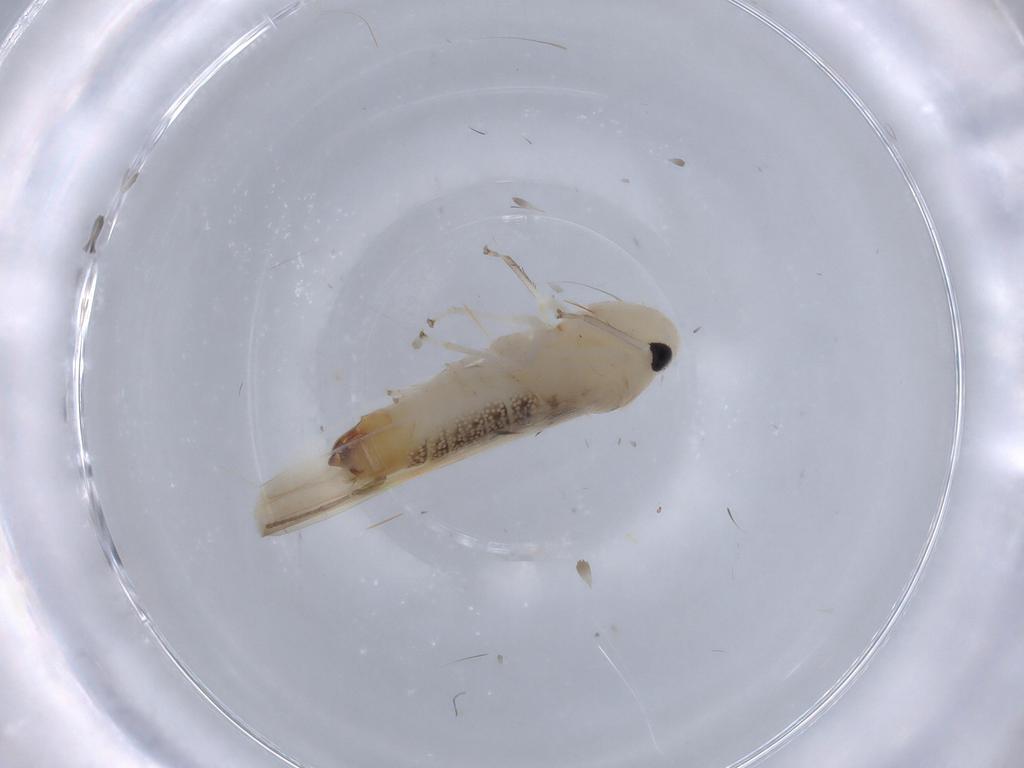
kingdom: Animalia
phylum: Arthropoda
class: Insecta
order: Hemiptera
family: Cicadellidae
